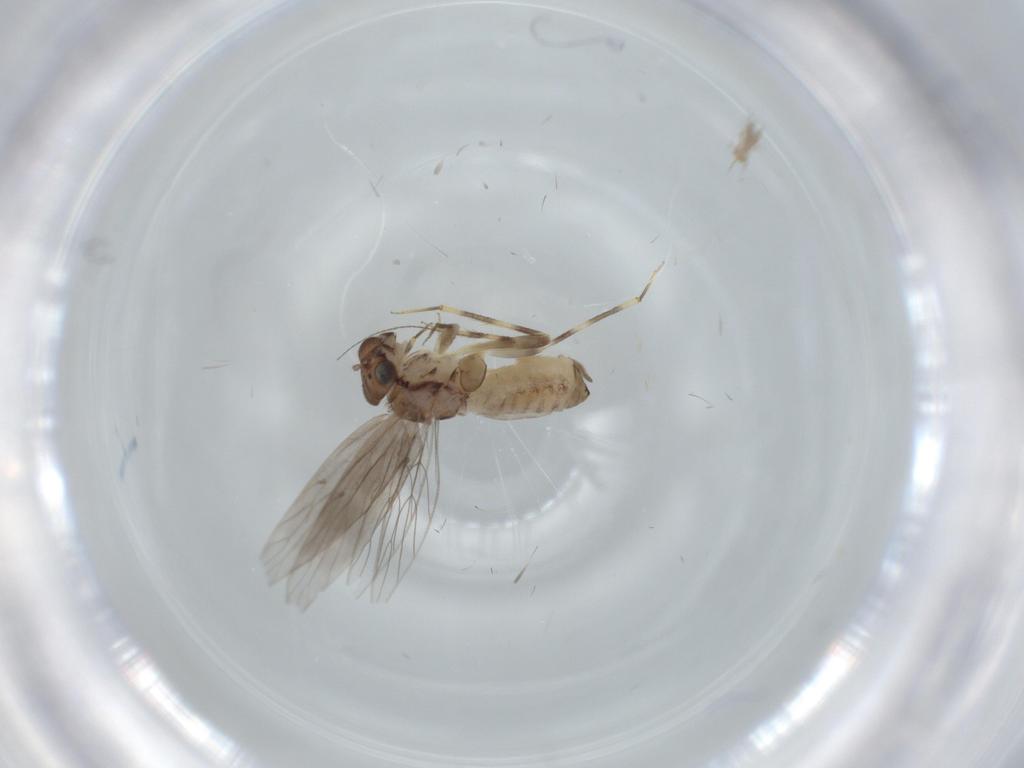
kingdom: Animalia
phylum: Arthropoda
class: Insecta
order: Psocodea
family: Lepidopsocidae
